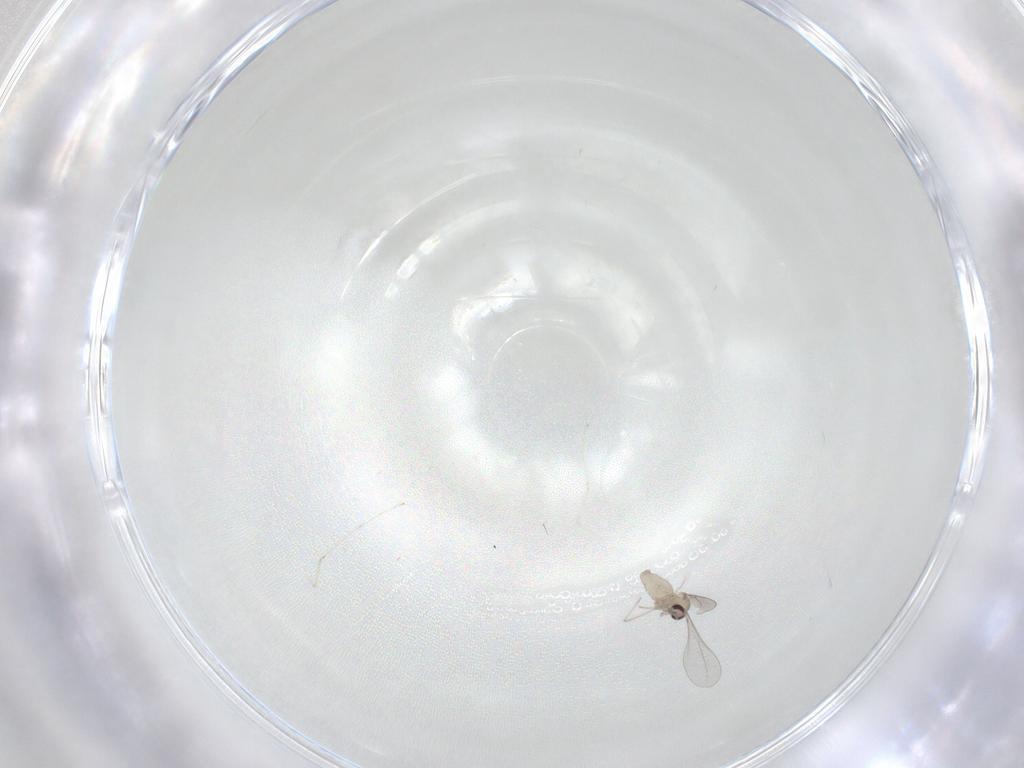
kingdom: Animalia
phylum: Arthropoda
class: Insecta
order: Diptera
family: Cecidomyiidae
